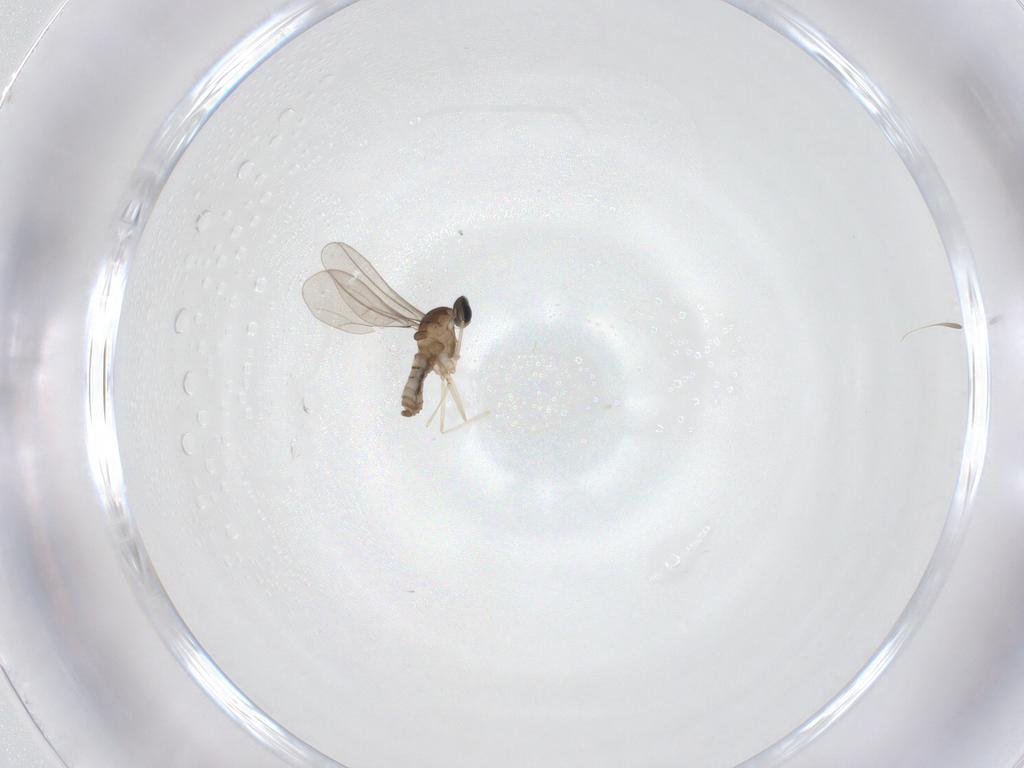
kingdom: Animalia
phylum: Arthropoda
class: Insecta
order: Diptera
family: Cecidomyiidae
